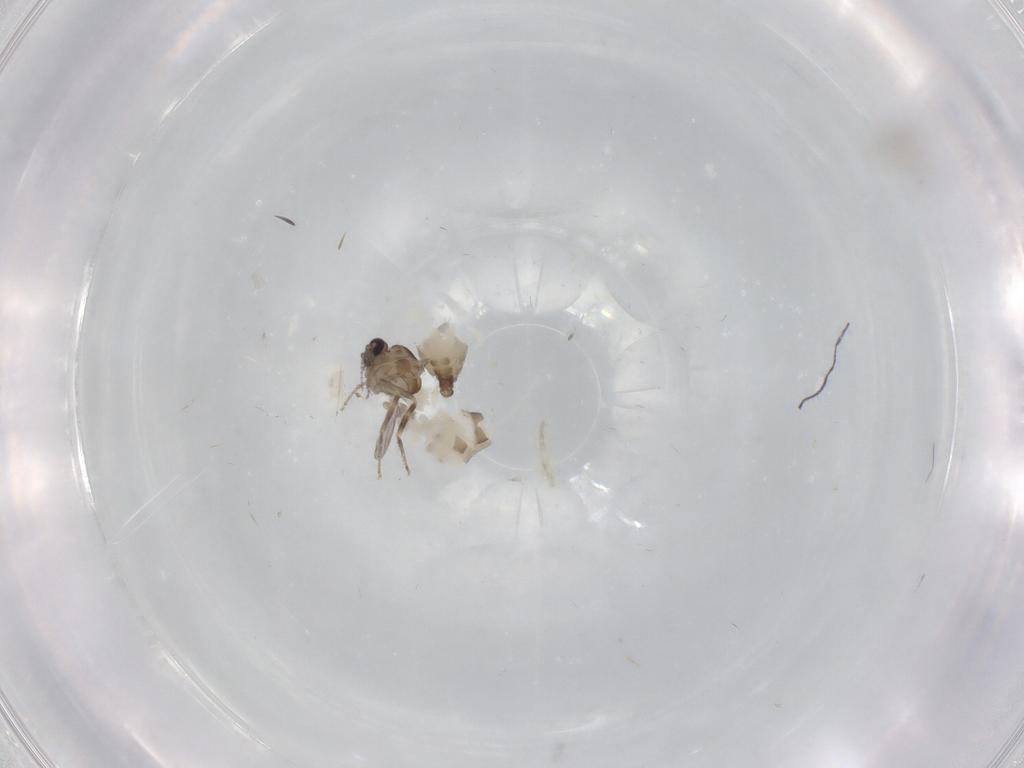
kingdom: Animalia
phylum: Arthropoda
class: Insecta
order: Diptera
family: Ceratopogonidae
